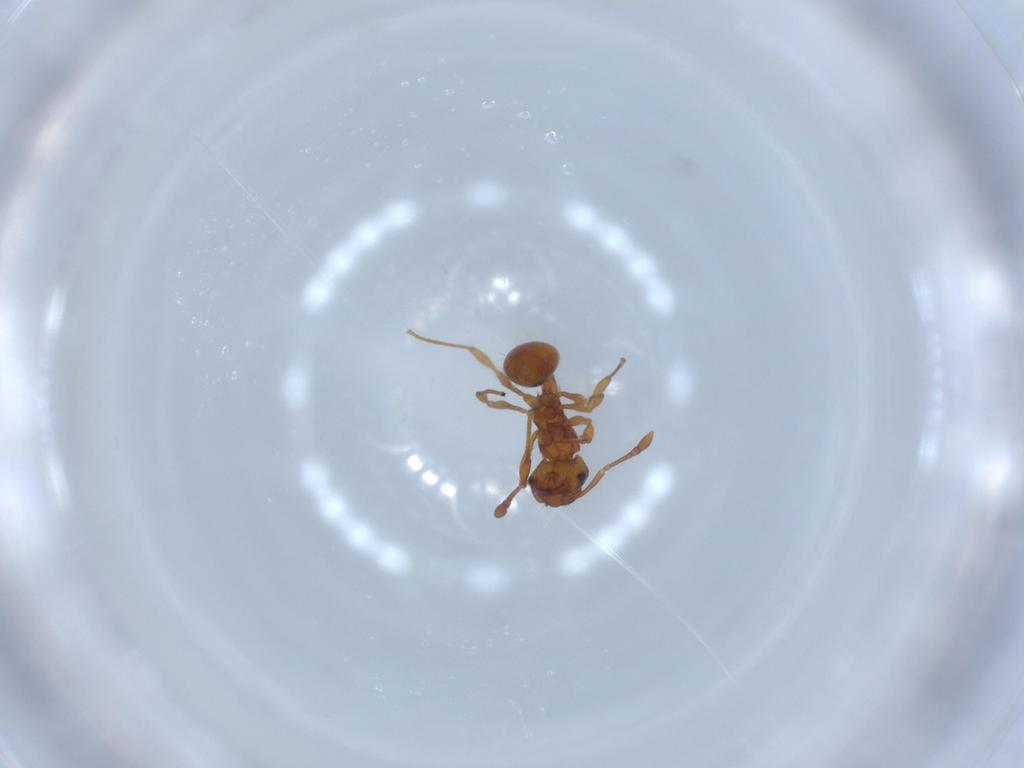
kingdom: Animalia
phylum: Arthropoda
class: Insecta
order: Hymenoptera
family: Formicidae
